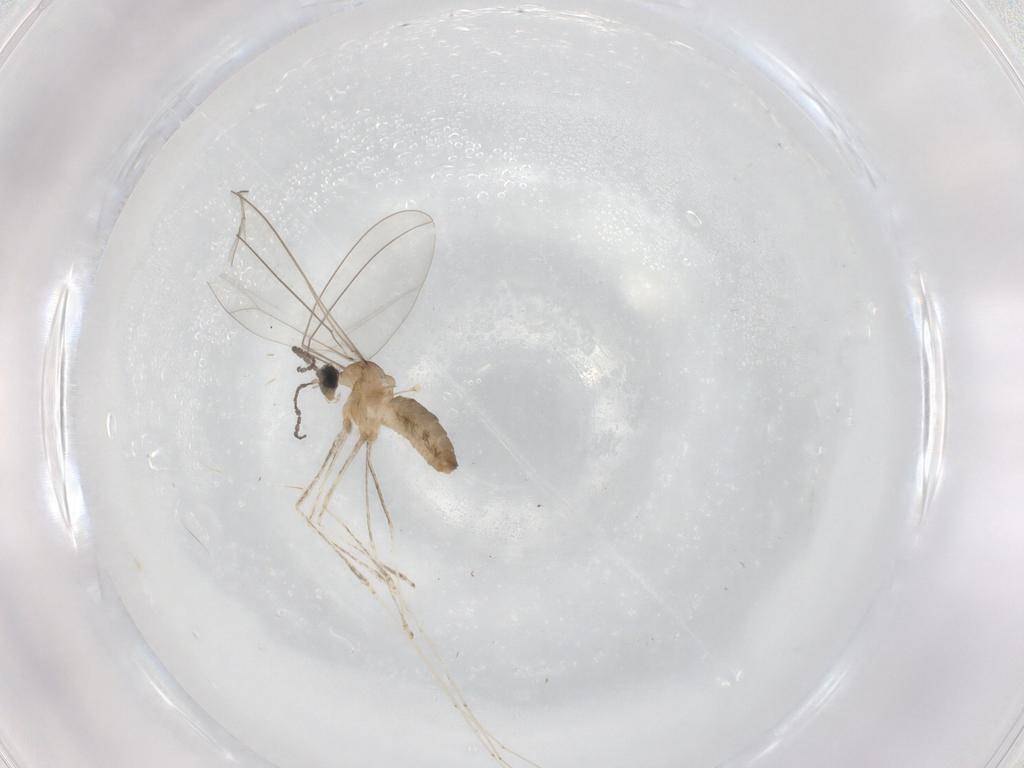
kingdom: Animalia
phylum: Arthropoda
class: Insecta
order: Diptera
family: Cecidomyiidae
